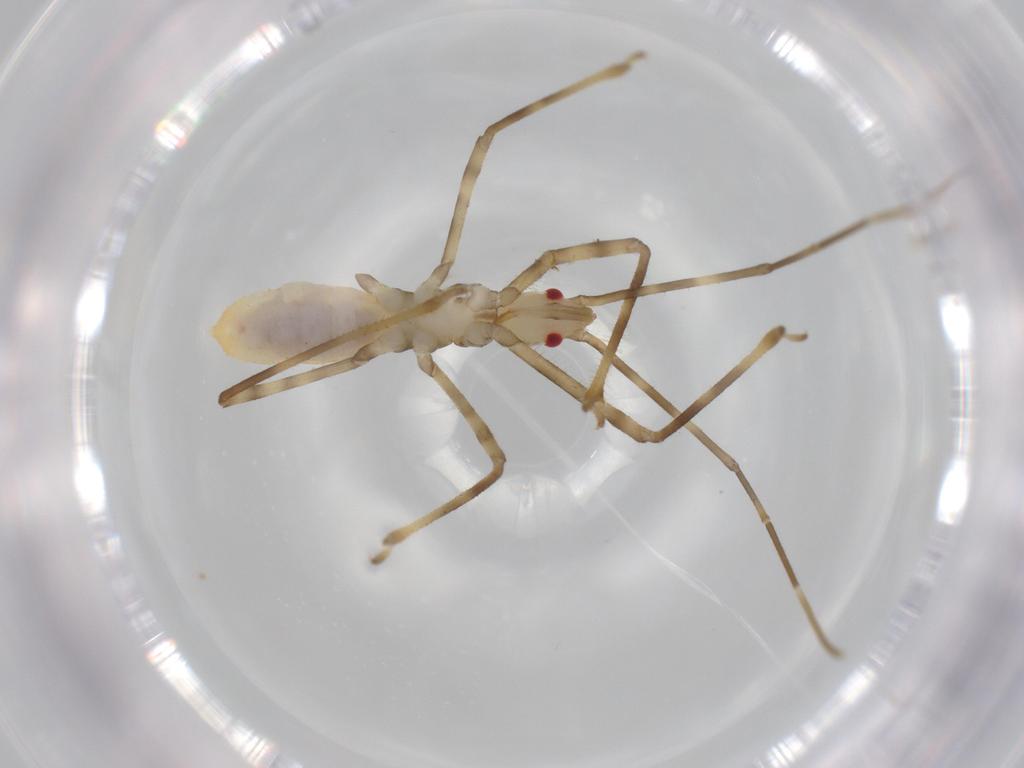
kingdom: Animalia
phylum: Arthropoda
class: Insecta
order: Hemiptera
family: Reduviidae
